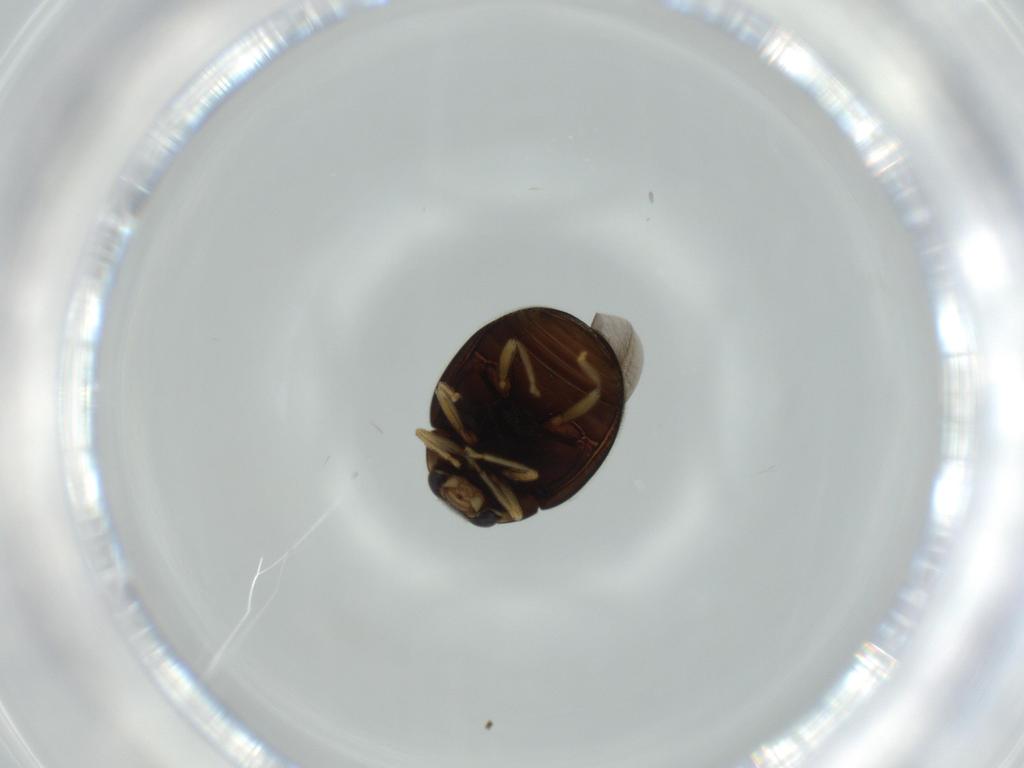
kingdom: Animalia
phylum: Arthropoda
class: Insecta
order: Coleoptera
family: Coccinellidae
